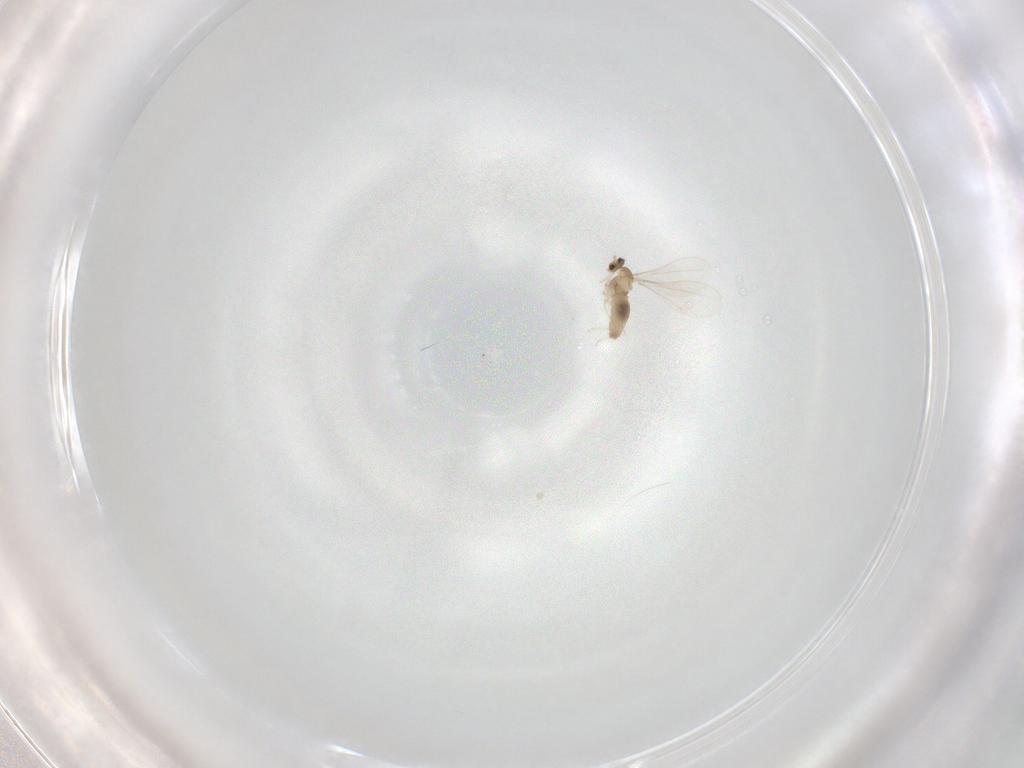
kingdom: Animalia
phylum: Arthropoda
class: Insecta
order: Diptera
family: Cecidomyiidae
